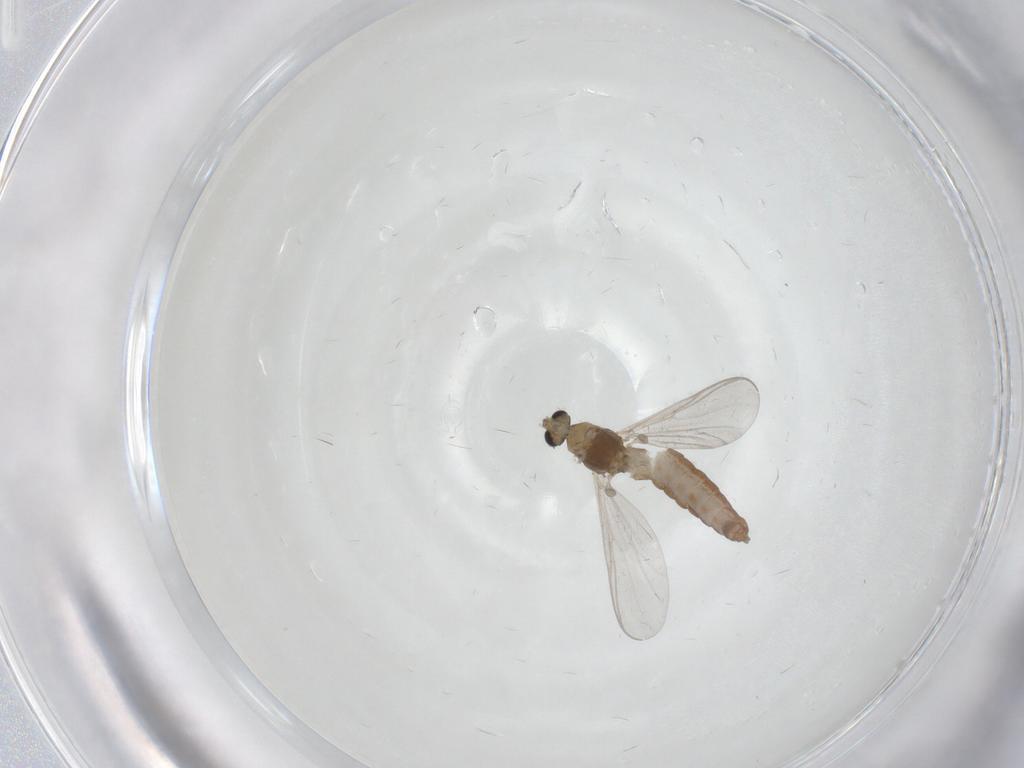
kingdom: Animalia
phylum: Arthropoda
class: Insecta
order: Diptera
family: Chironomidae
